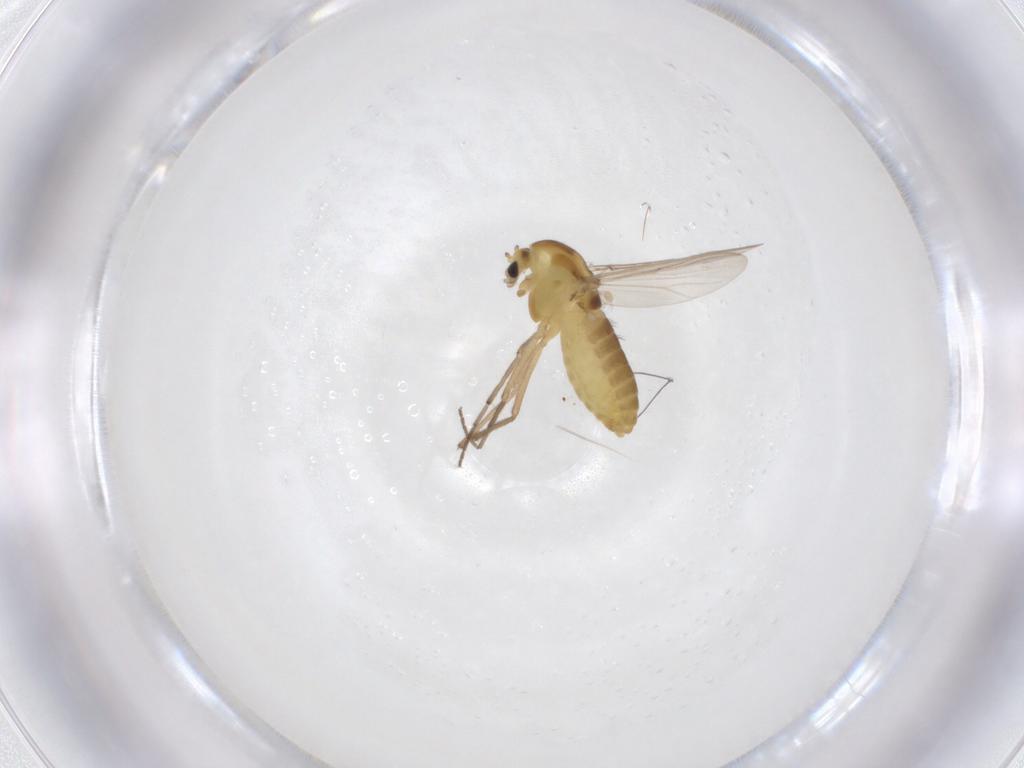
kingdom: Animalia
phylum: Arthropoda
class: Insecta
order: Diptera
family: Chironomidae
